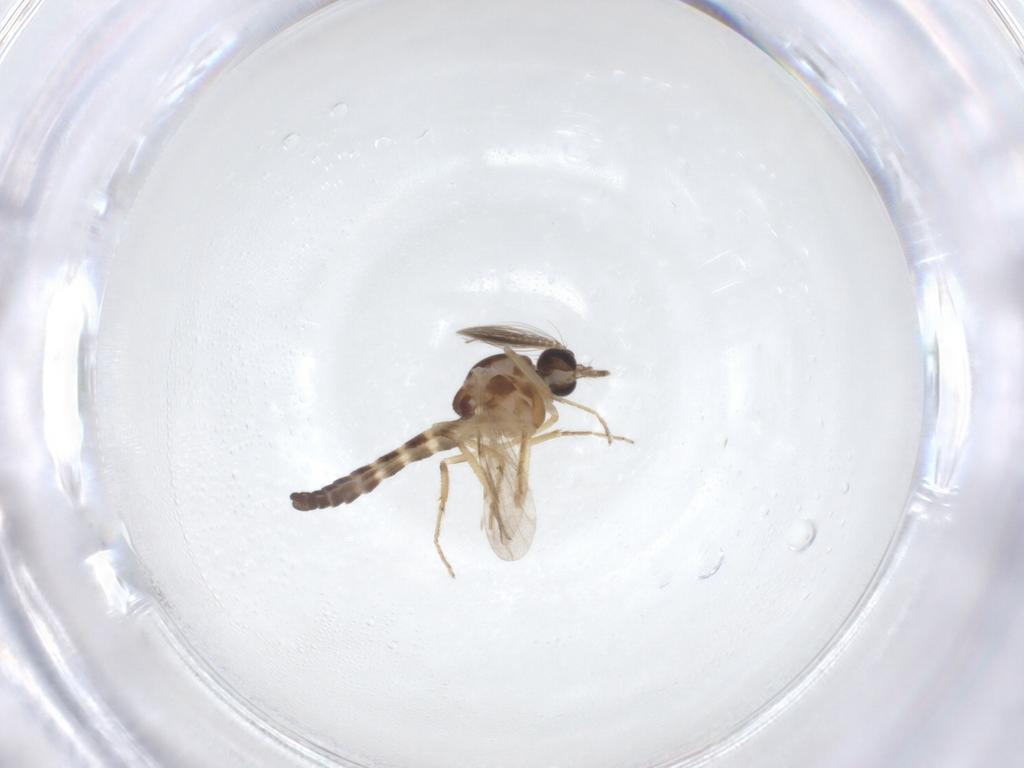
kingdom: Animalia
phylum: Arthropoda
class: Insecta
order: Diptera
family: Ceratopogonidae
